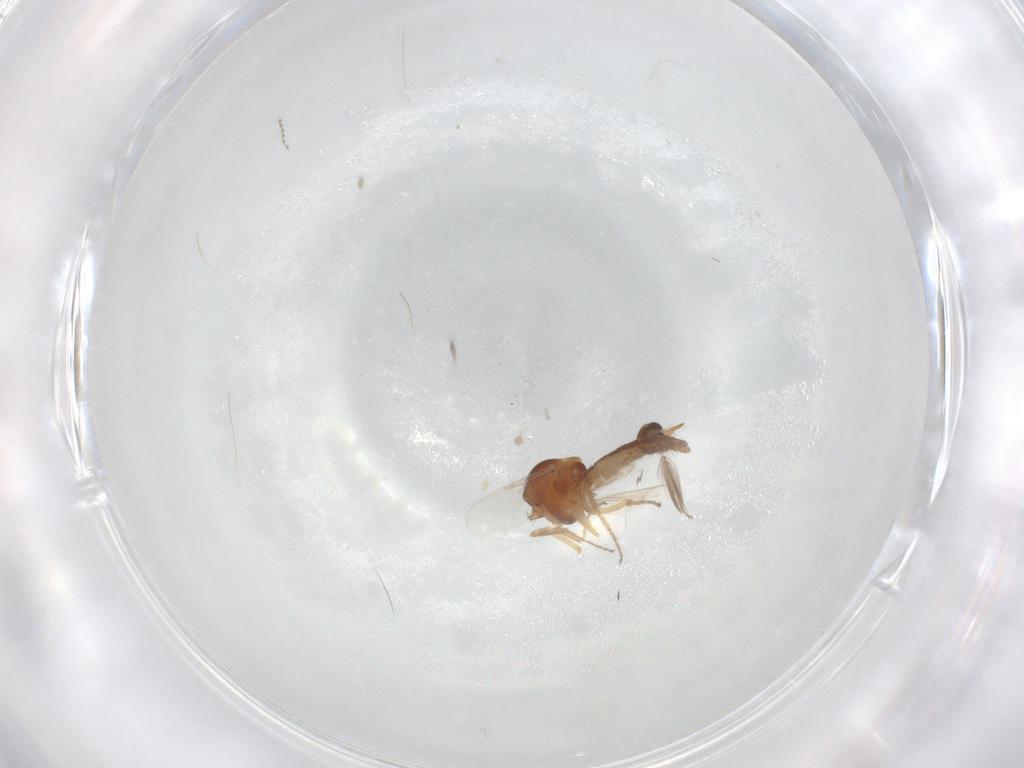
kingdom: Animalia
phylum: Arthropoda
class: Insecta
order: Diptera
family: Ceratopogonidae
